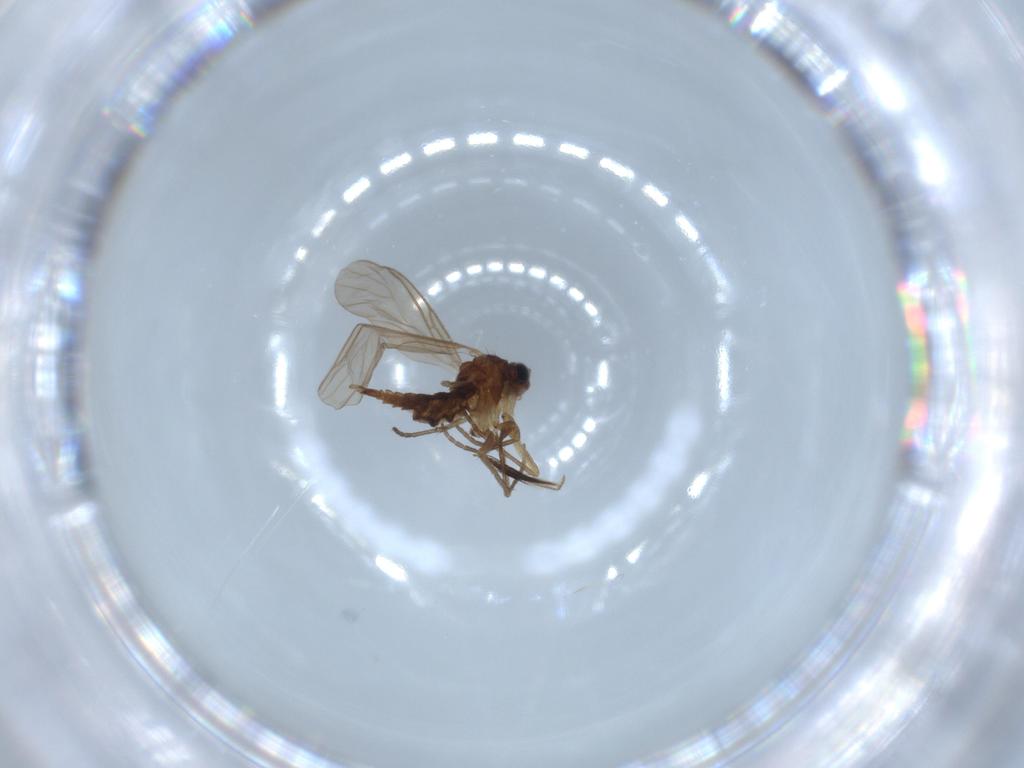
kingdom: Animalia
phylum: Arthropoda
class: Insecta
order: Diptera
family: Sciaridae
